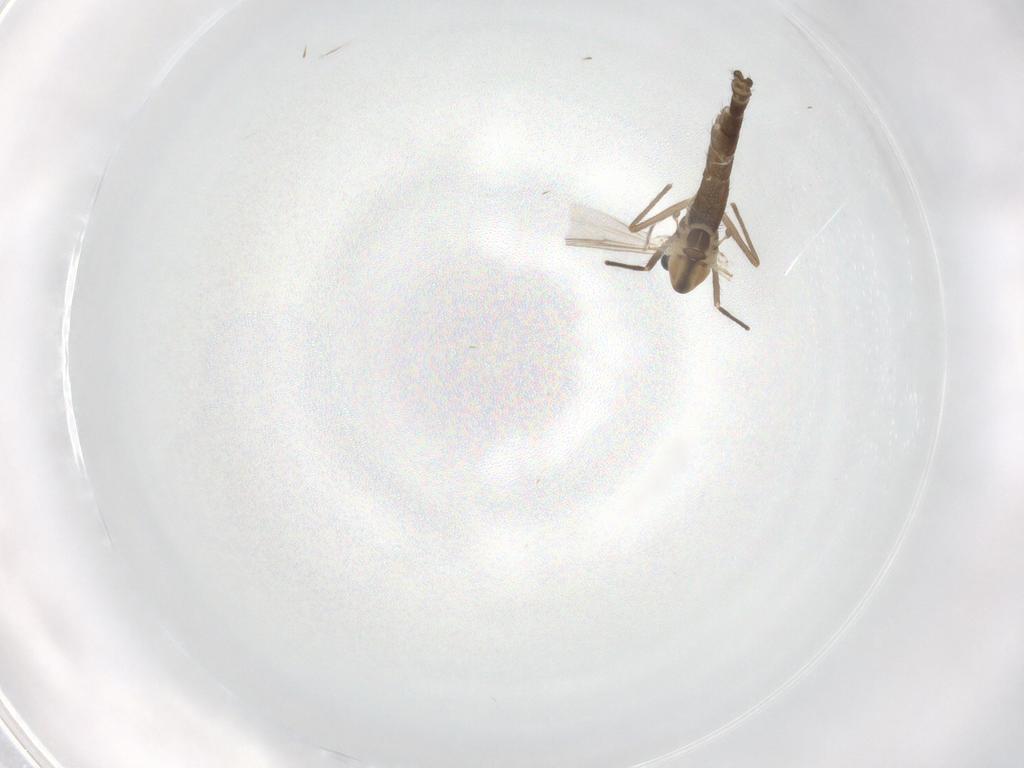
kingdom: Animalia
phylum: Arthropoda
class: Insecta
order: Diptera
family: Chironomidae
